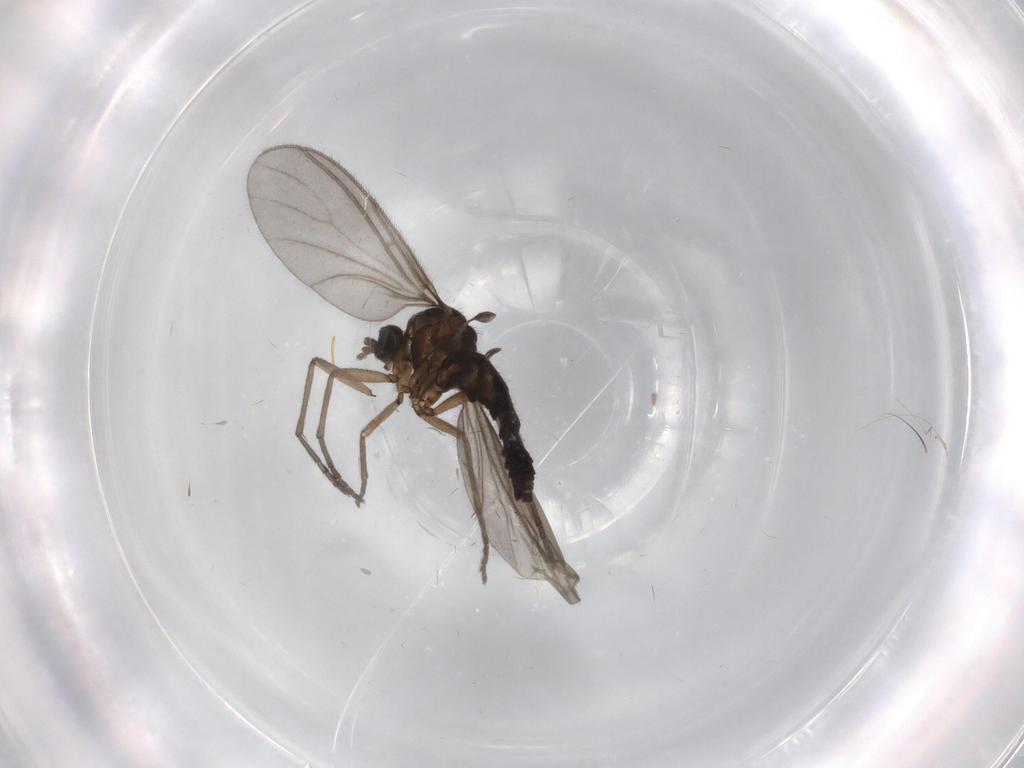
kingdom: Animalia
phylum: Arthropoda
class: Insecta
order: Diptera
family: Sciaridae
